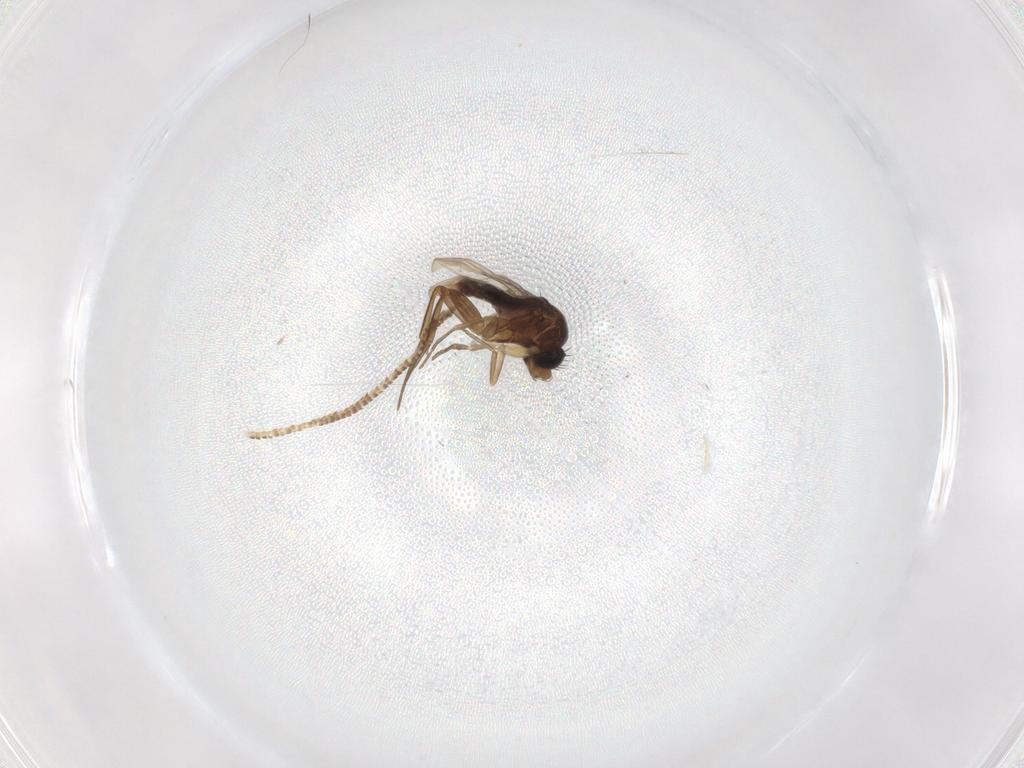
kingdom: Animalia
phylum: Arthropoda
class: Insecta
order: Diptera
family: Phoridae
